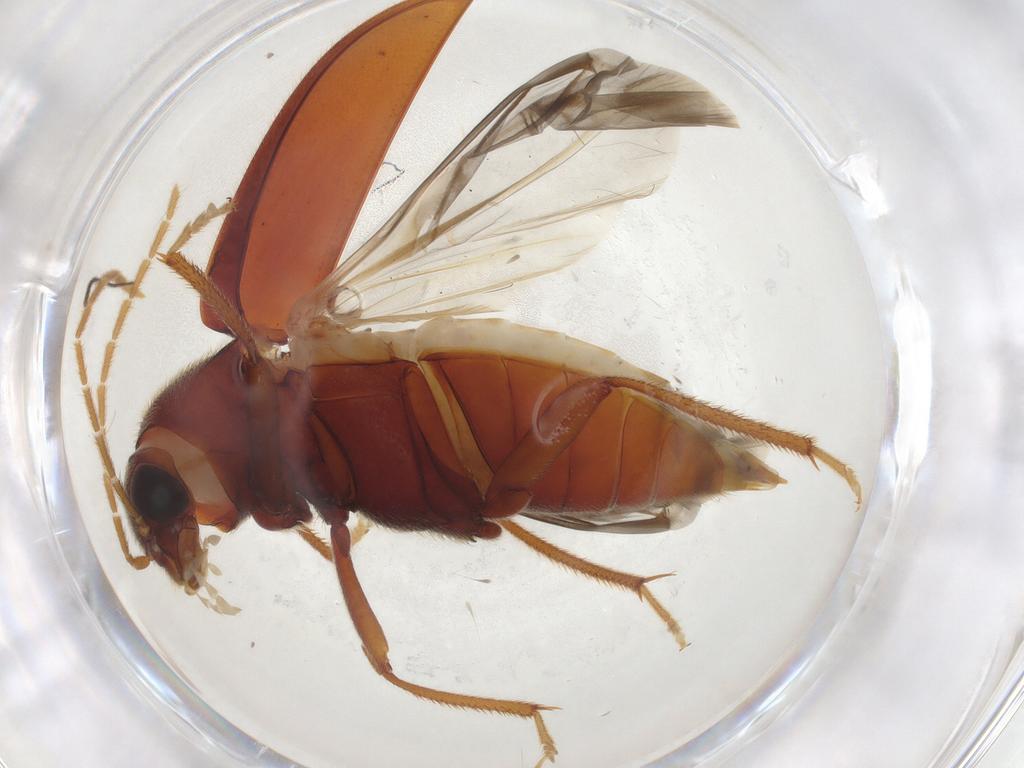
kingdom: Animalia
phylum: Arthropoda
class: Insecta
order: Coleoptera
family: Ptilodactylidae
